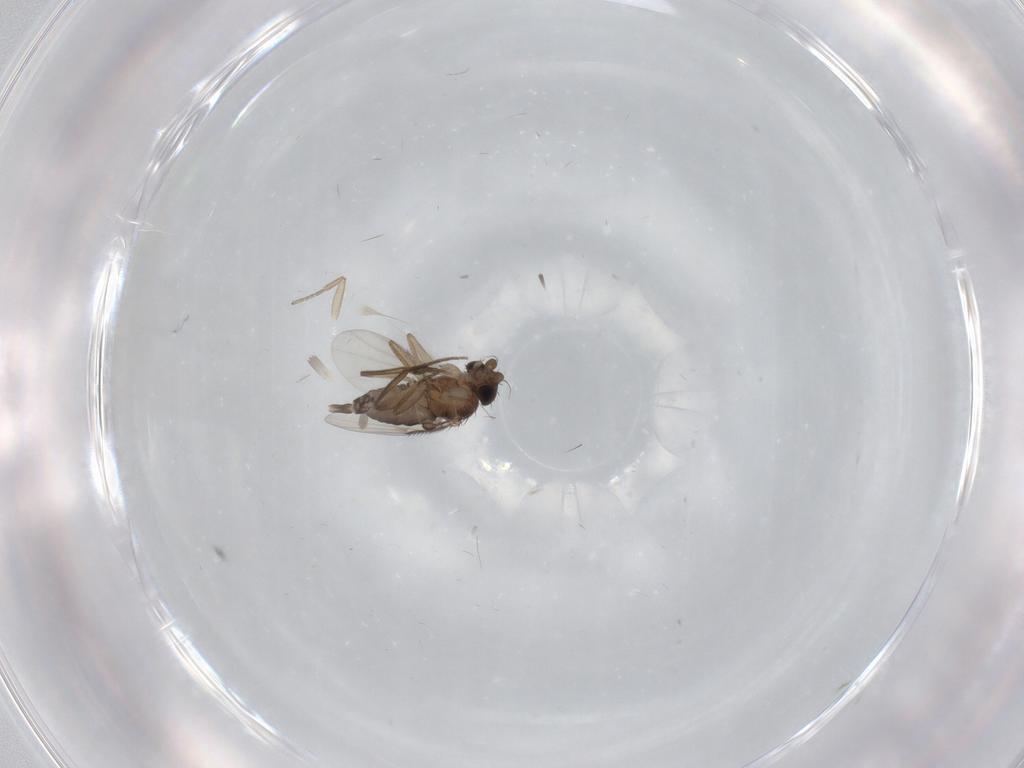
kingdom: Animalia
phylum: Arthropoda
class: Insecta
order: Diptera
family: Phoridae
